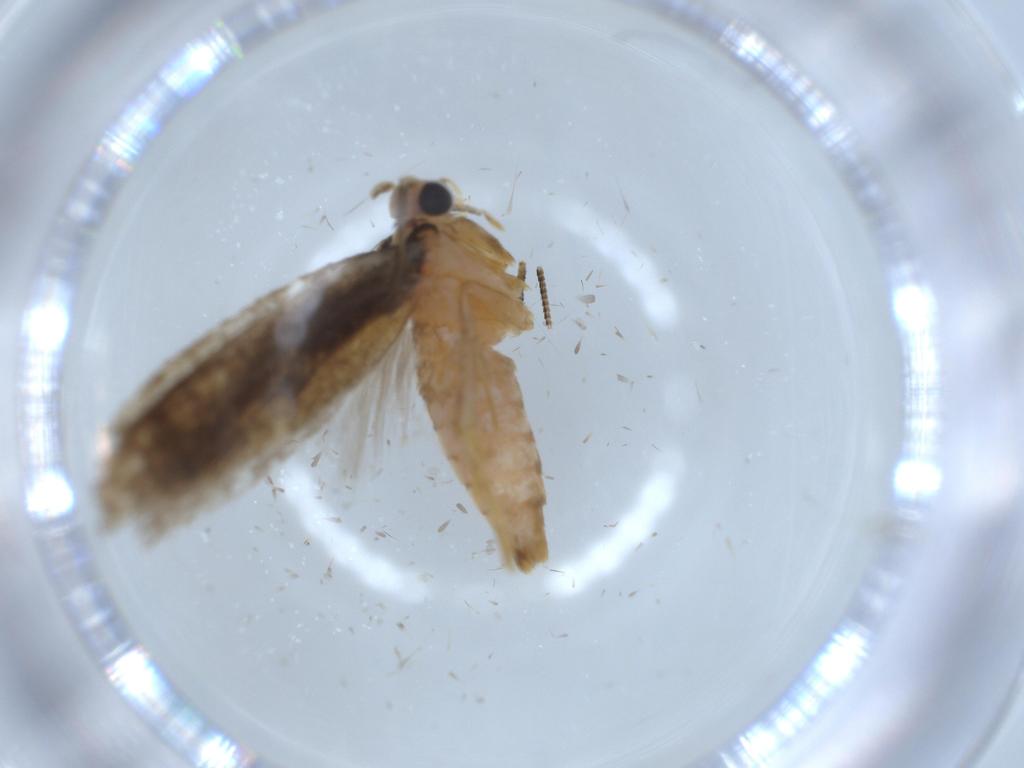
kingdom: Animalia
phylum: Arthropoda
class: Insecta
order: Lepidoptera
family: Tineidae
